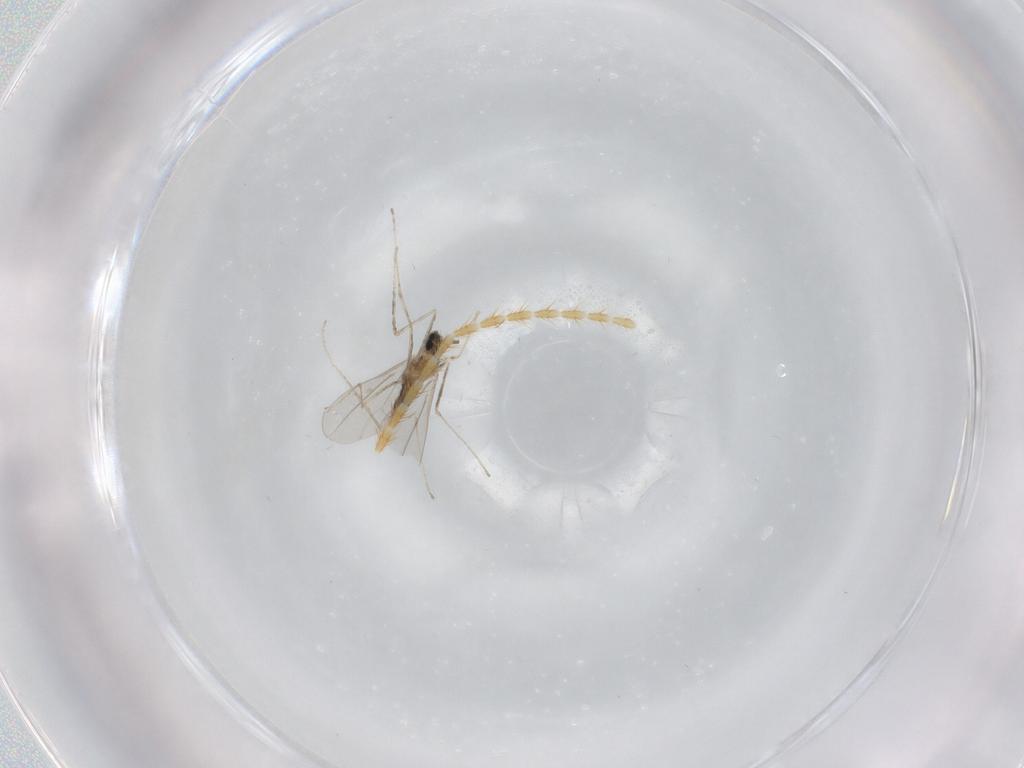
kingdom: Animalia
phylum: Arthropoda
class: Insecta
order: Diptera
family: Cecidomyiidae
